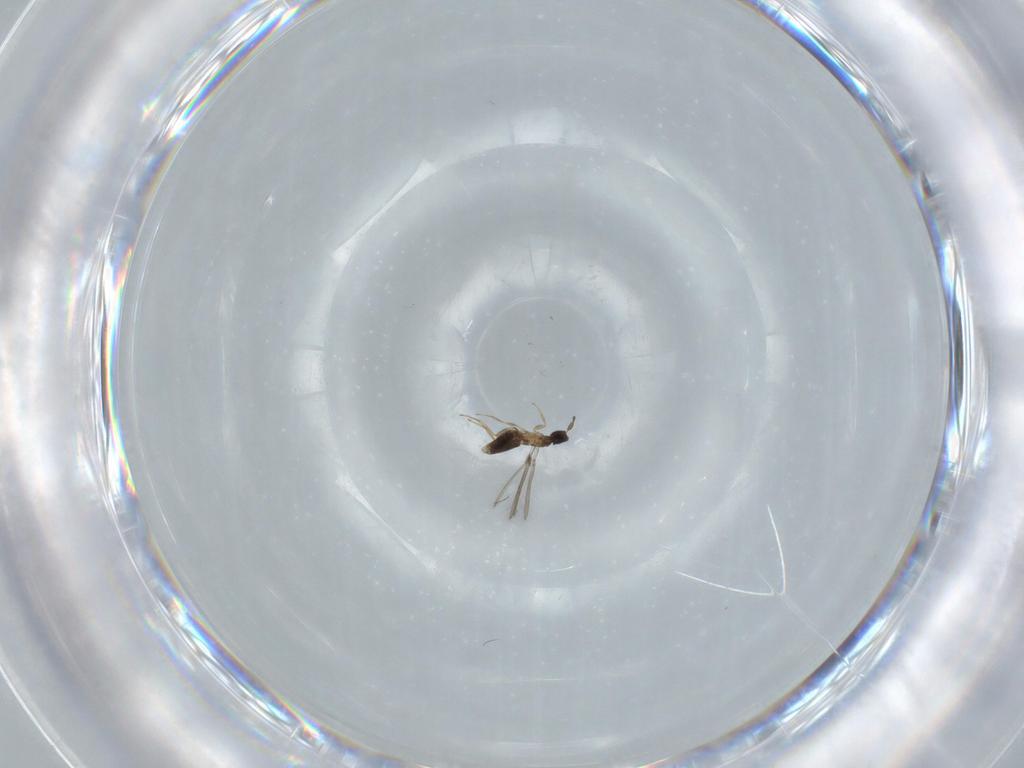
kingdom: Animalia
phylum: Arthropoda
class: Insecta
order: Hymenoptera
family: Mymaridae
